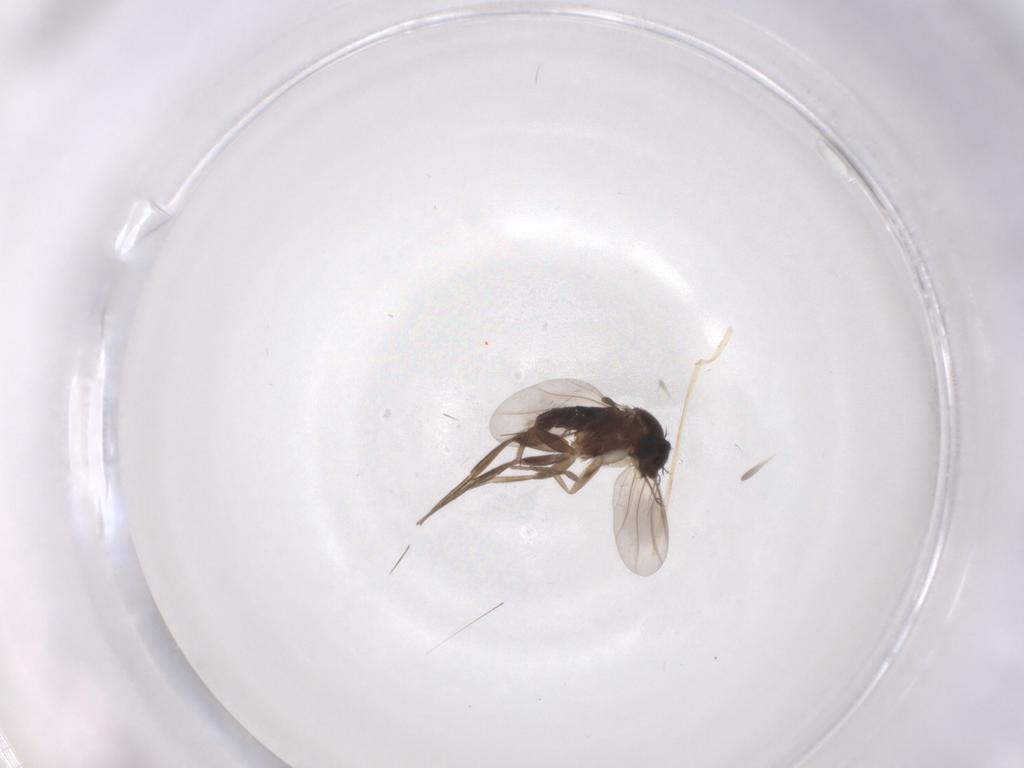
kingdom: Animalia
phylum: Arthropoda
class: Insecta
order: Diptera
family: Phoridae
